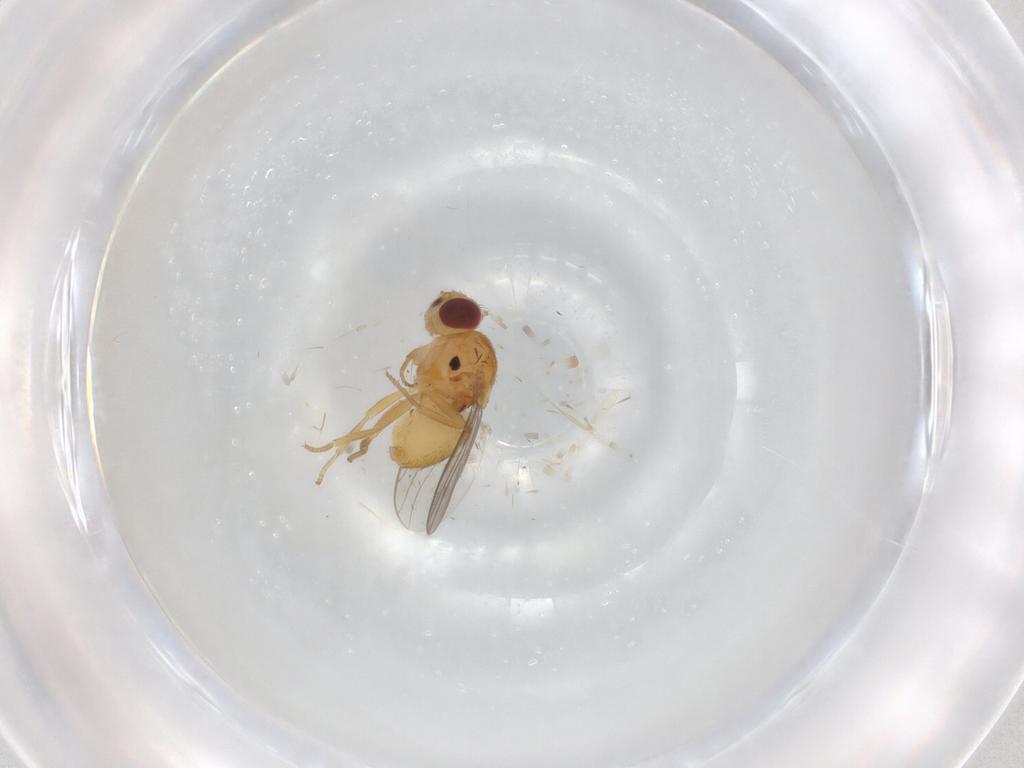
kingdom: Animalia
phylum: Arthropoda
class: Insecta
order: Diptera
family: Chloropidae
